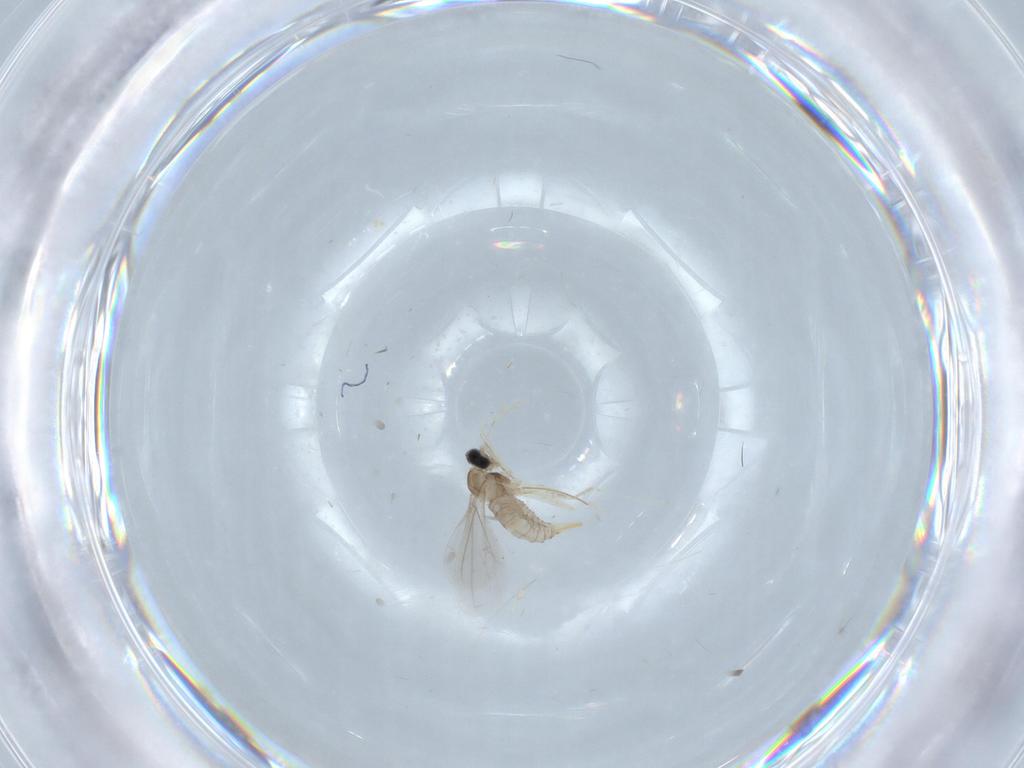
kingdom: Animalia
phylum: Arthropoda
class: Insecta
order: Diptera
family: Cecidomyiidae
